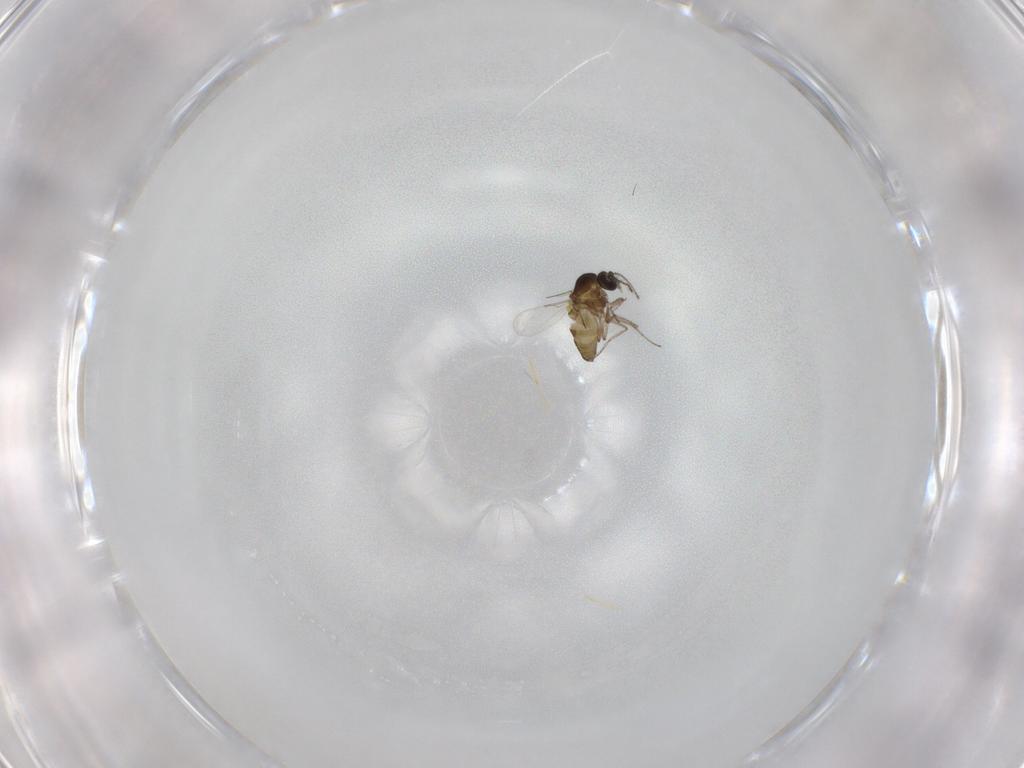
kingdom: Animalia
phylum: Arthropoda
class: Insecta
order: Diptera
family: Ceratopogonidae
